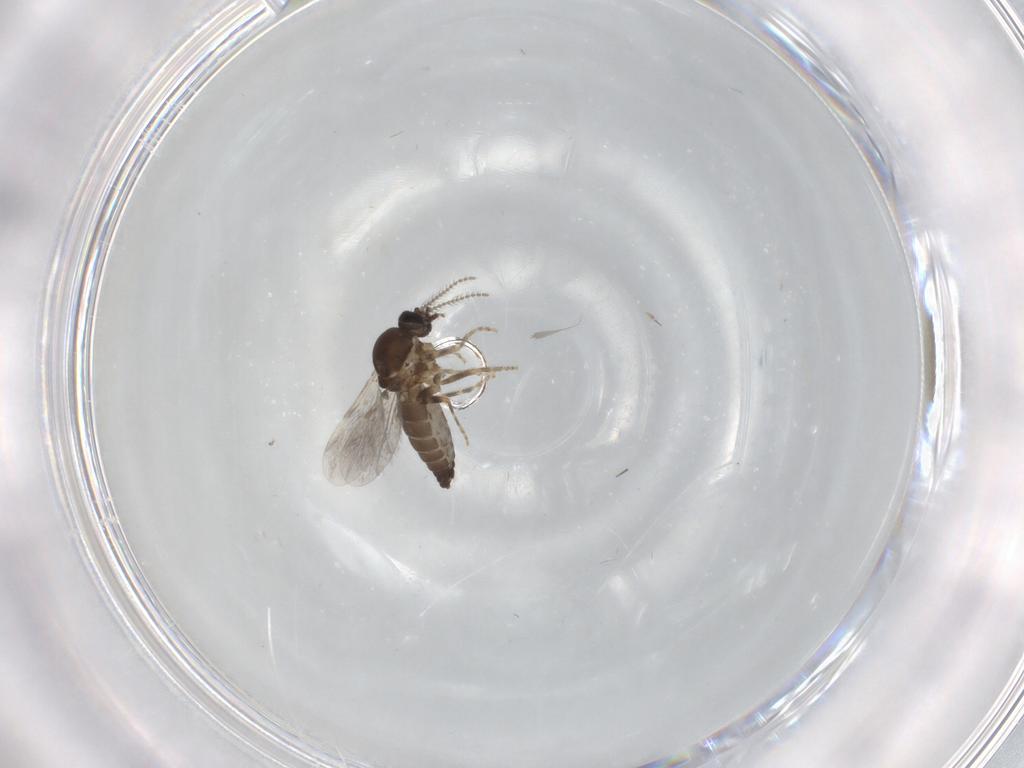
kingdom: Animalia
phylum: Arthropoda
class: Insecta
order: Diptera
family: Ceratopogonidae
